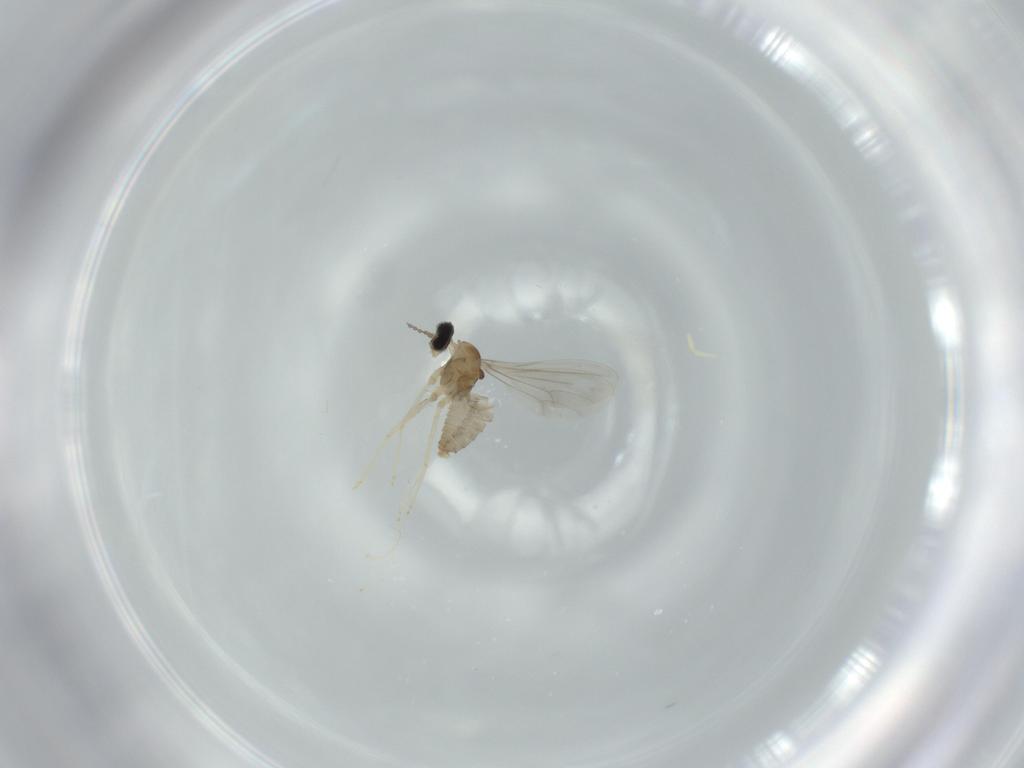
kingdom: Animalia
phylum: Arthropoda
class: Insecta
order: Diptera
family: Cecidomyiidae
